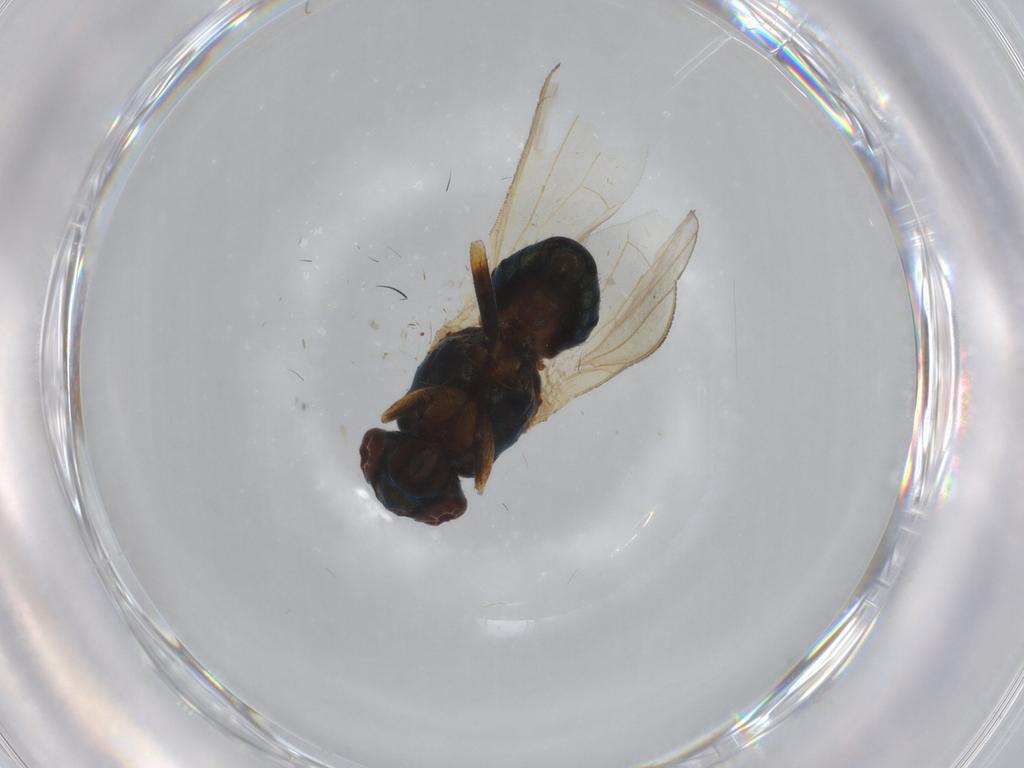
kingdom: Animalia
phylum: Arthropoda
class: Insecta
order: Diptera
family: Lauxaniidae
